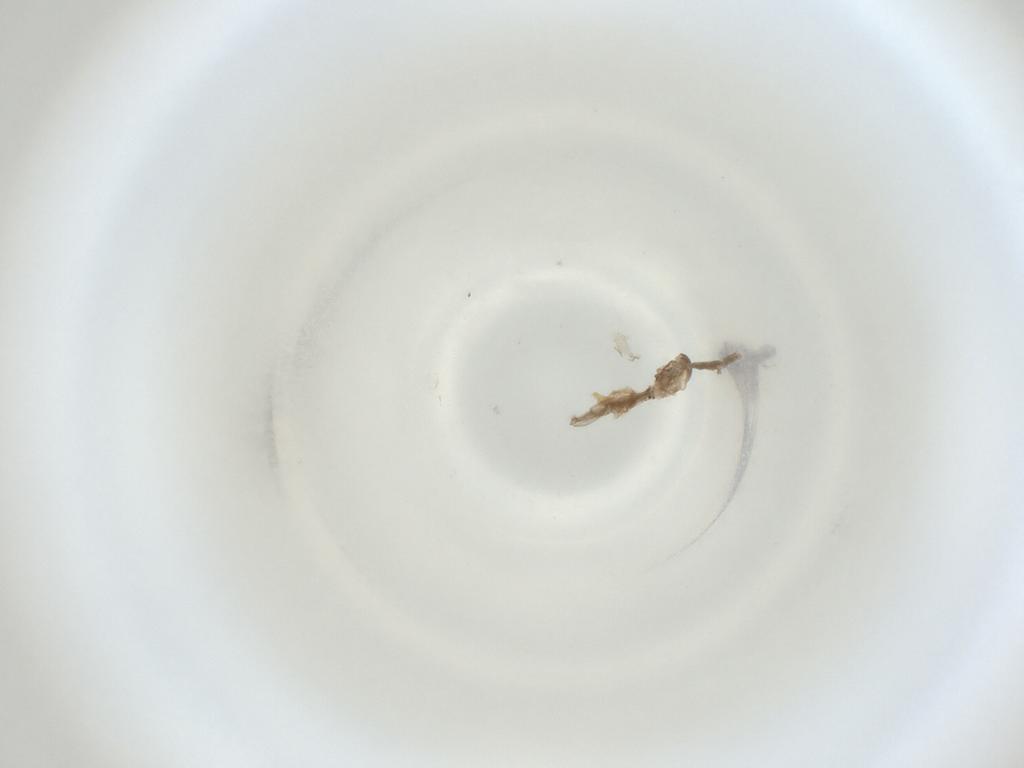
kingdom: Animalia
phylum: Arthropoda
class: Insecta
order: Diptera
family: Cecidomyiidae
